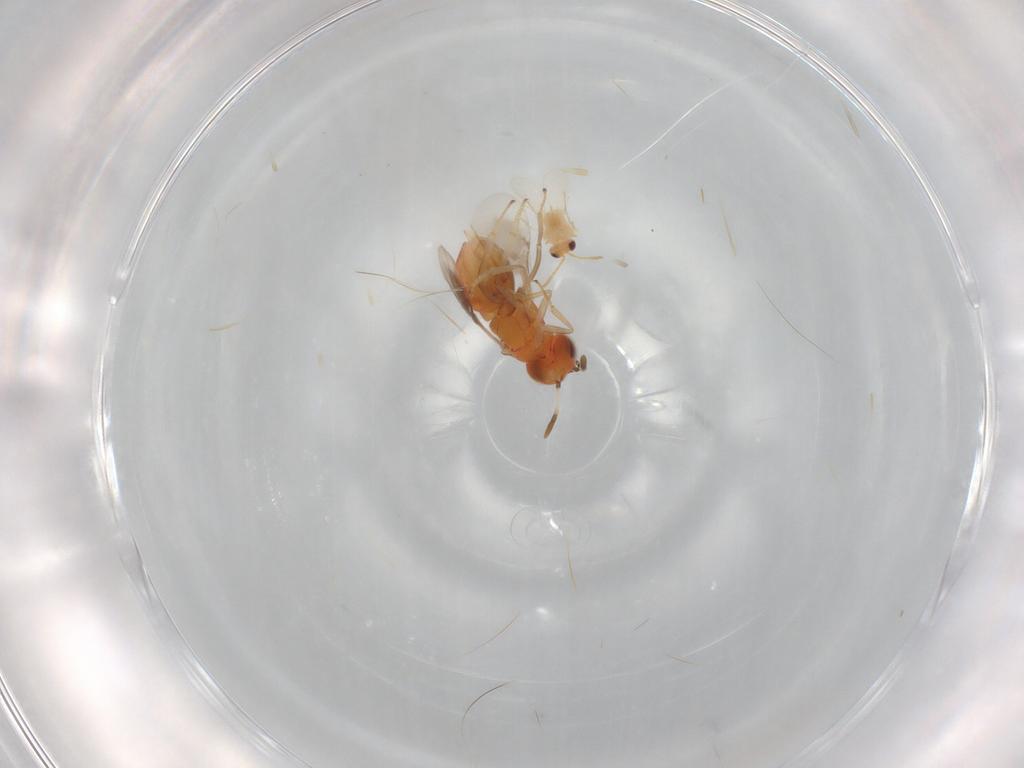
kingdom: Animalia
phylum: Arthropoda
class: Insecta
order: Hymenoptera
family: Encyrtidae
